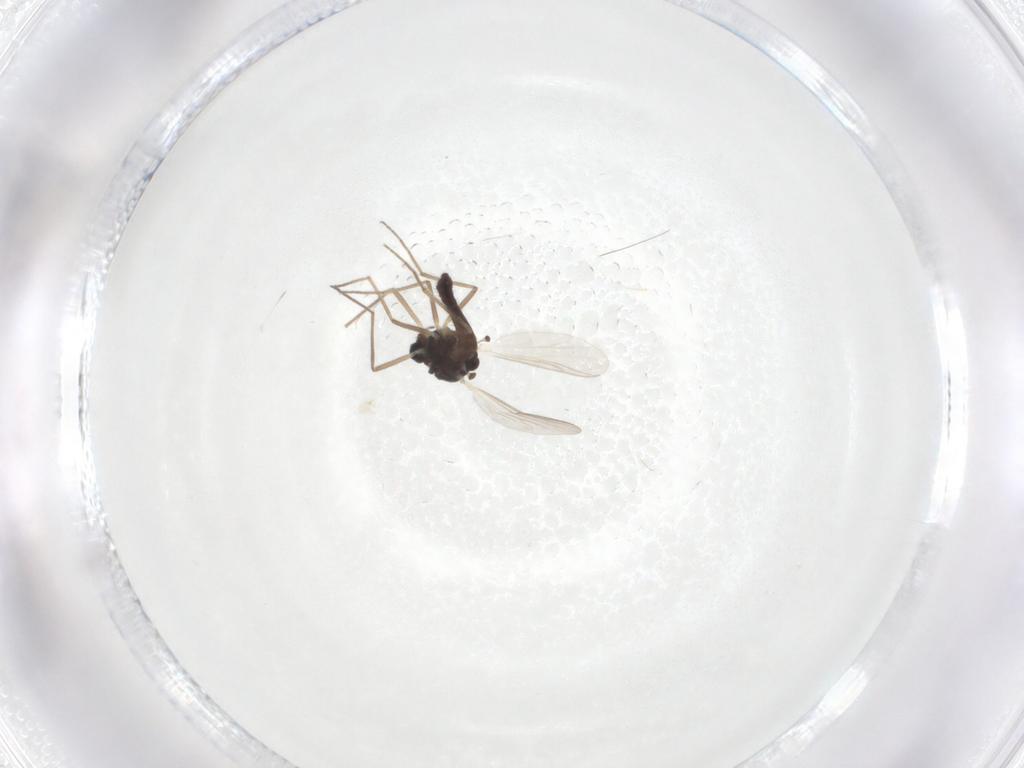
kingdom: Animalia
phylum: Arthropoda
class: Insecta
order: Diptera
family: Chironomidae
